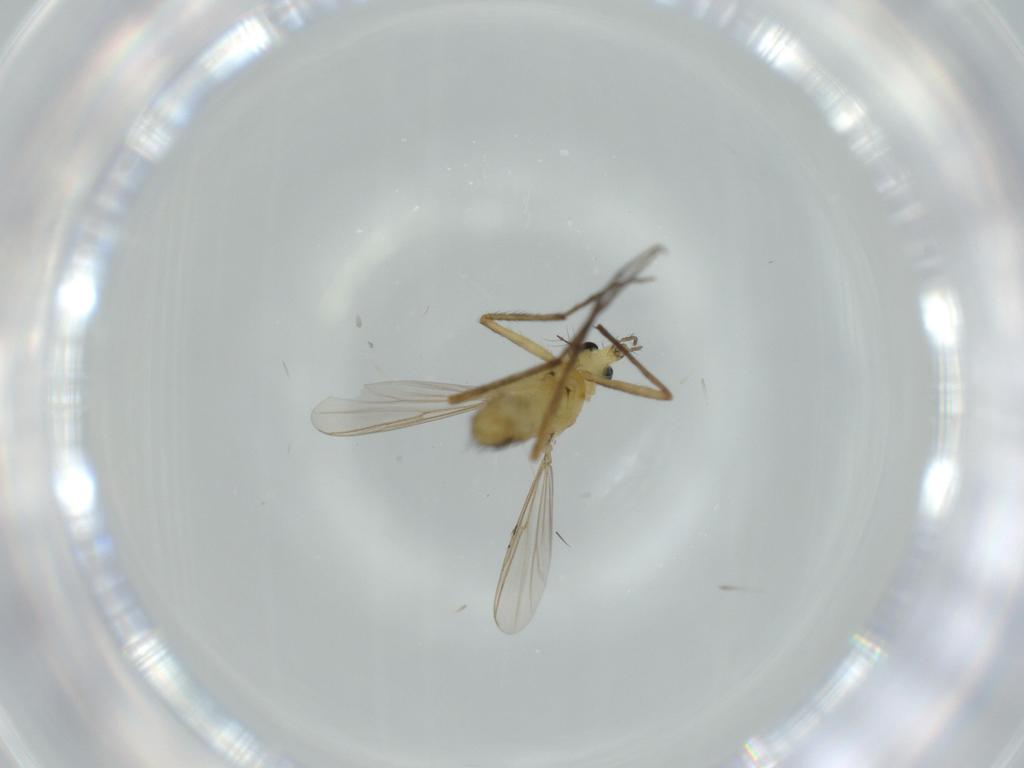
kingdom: Animalia
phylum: Arthropoda
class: Insecta
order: Diptera
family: Chironomidae
